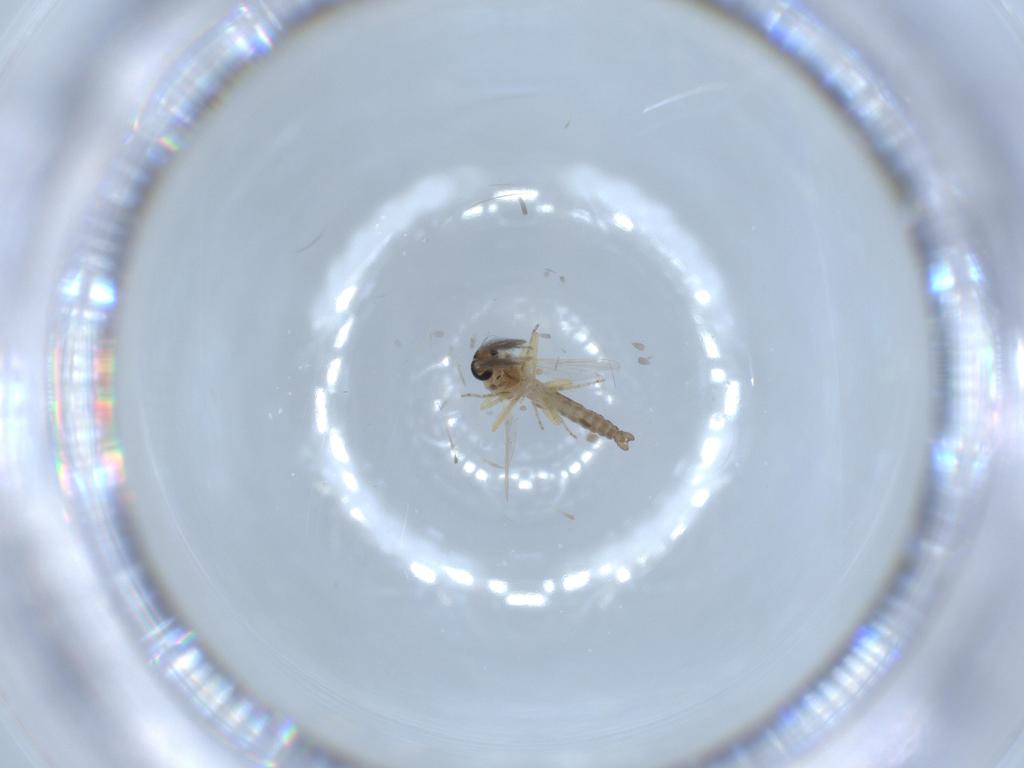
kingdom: Animalia
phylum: Arthropoda
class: Insecta
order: Diptera
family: Ceratopogonidae
